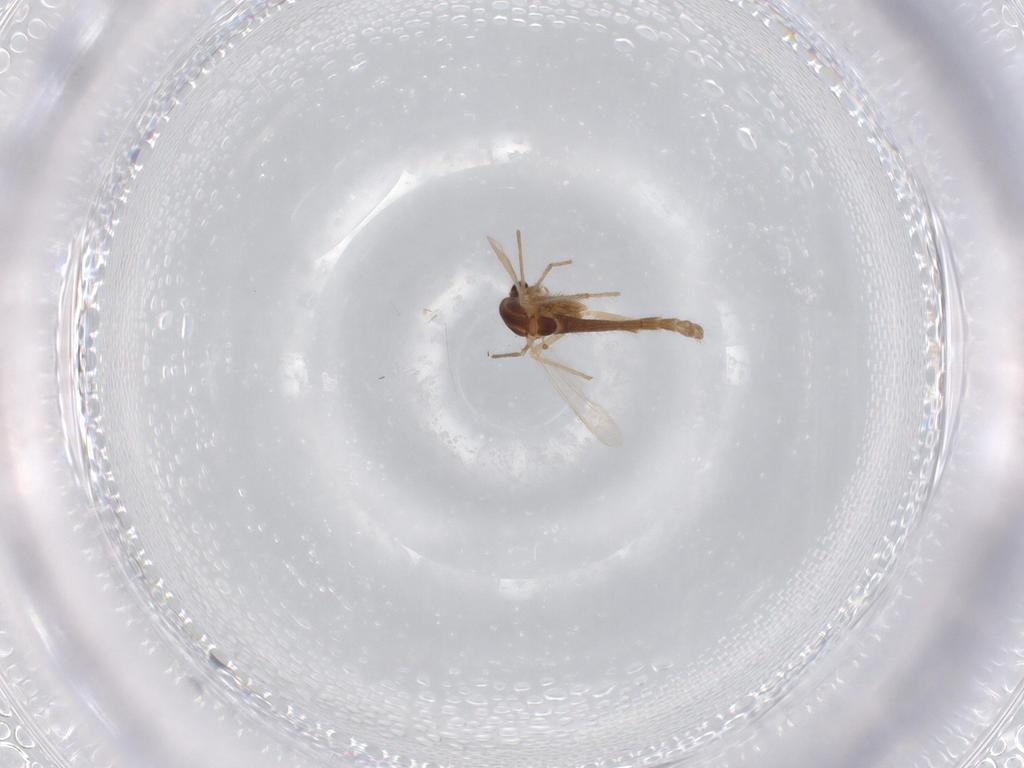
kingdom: Animalia
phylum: Arthropoda
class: Insecta
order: Diptera
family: Chironomidae
